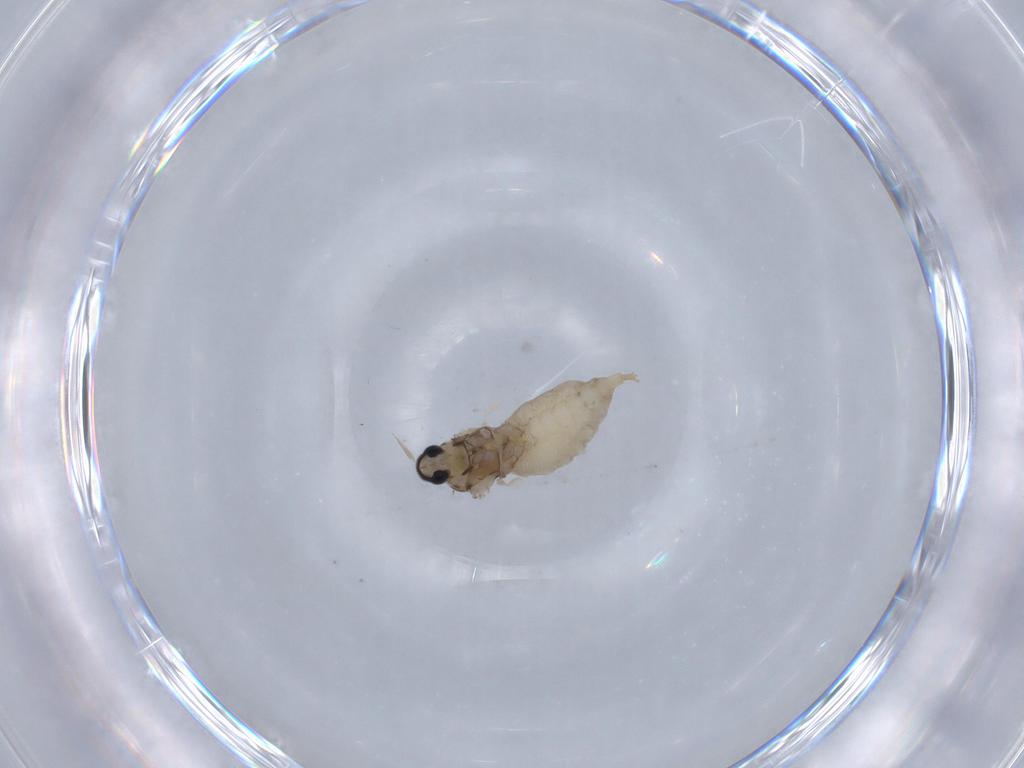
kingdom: Animalia
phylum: Arthropoda
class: Insecta
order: Diptera
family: Cecidomyiidae
